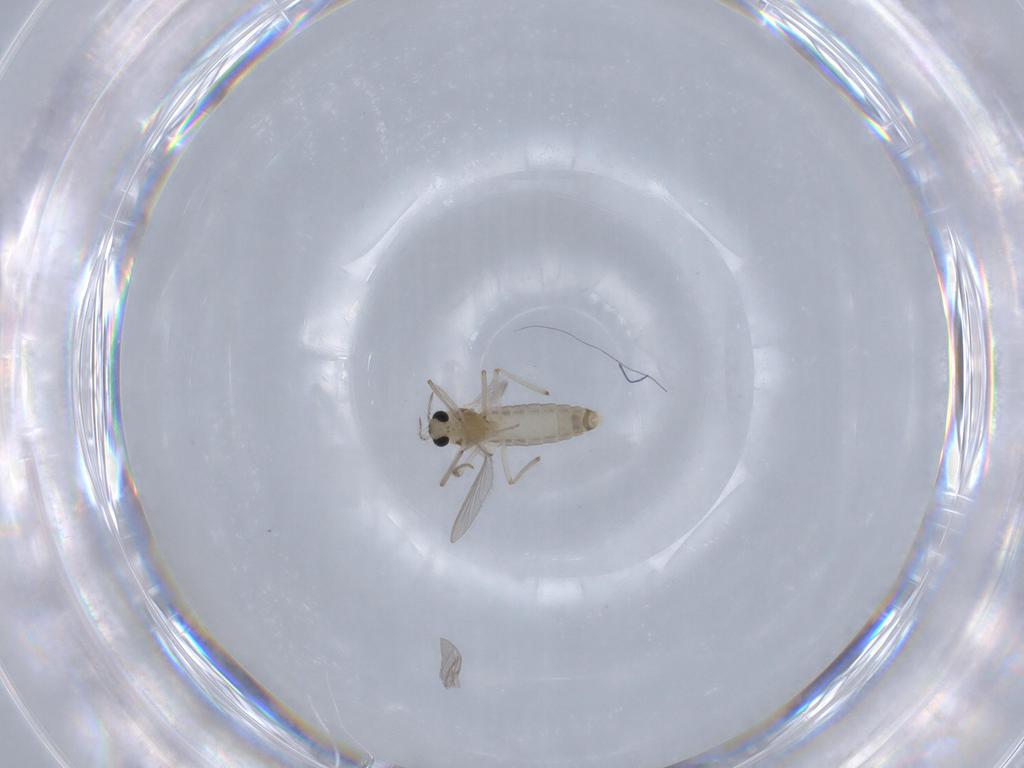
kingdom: Animalia
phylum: Arthropoda
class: Insecta
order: Diptera
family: Chironomidae
